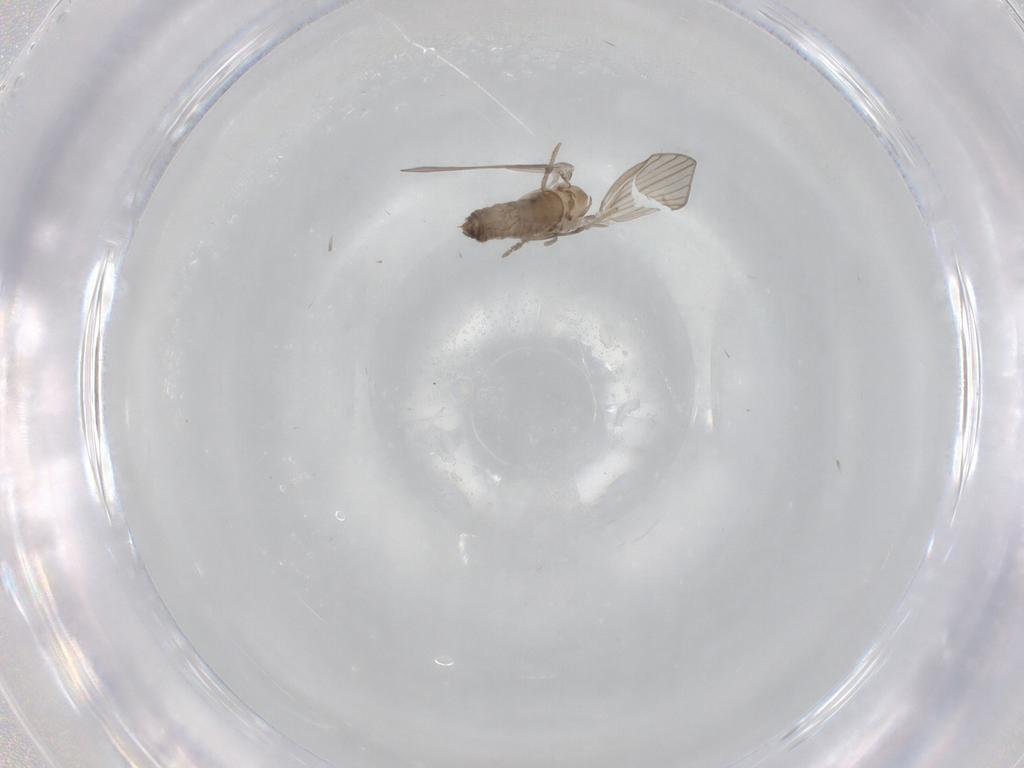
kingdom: Animalia
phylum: Arthropoda
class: Insecta
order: Diptera
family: Psychodidae
